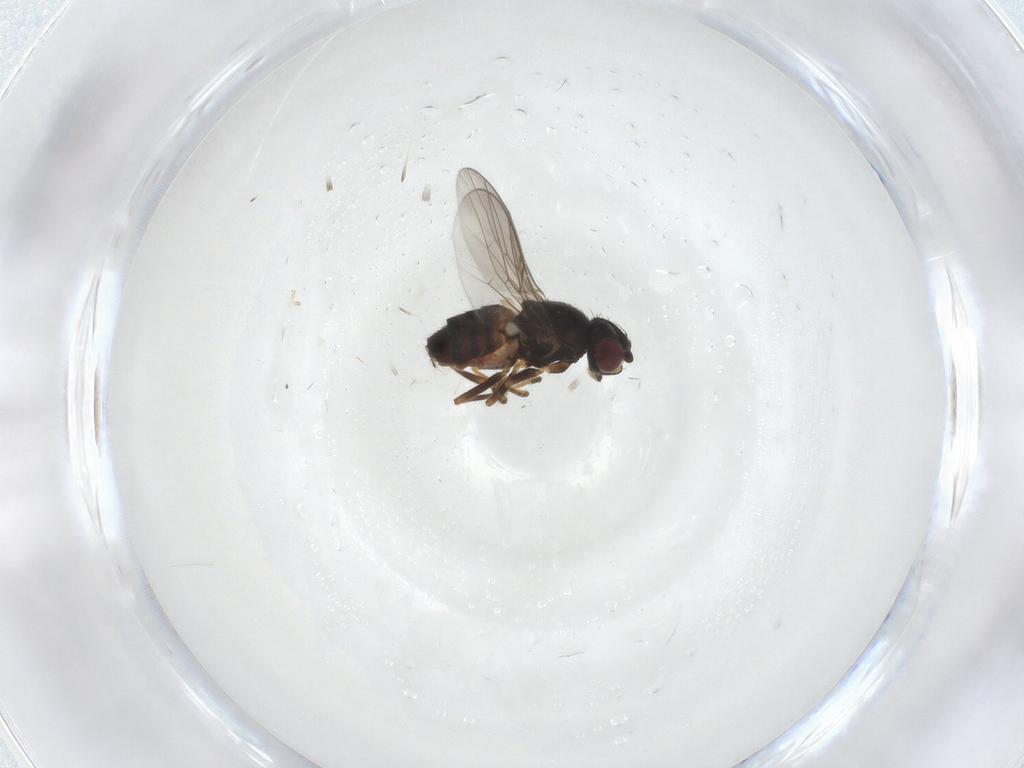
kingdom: Animalia
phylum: Arthropoda
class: Insecta
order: Diptera
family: Chloropidae
